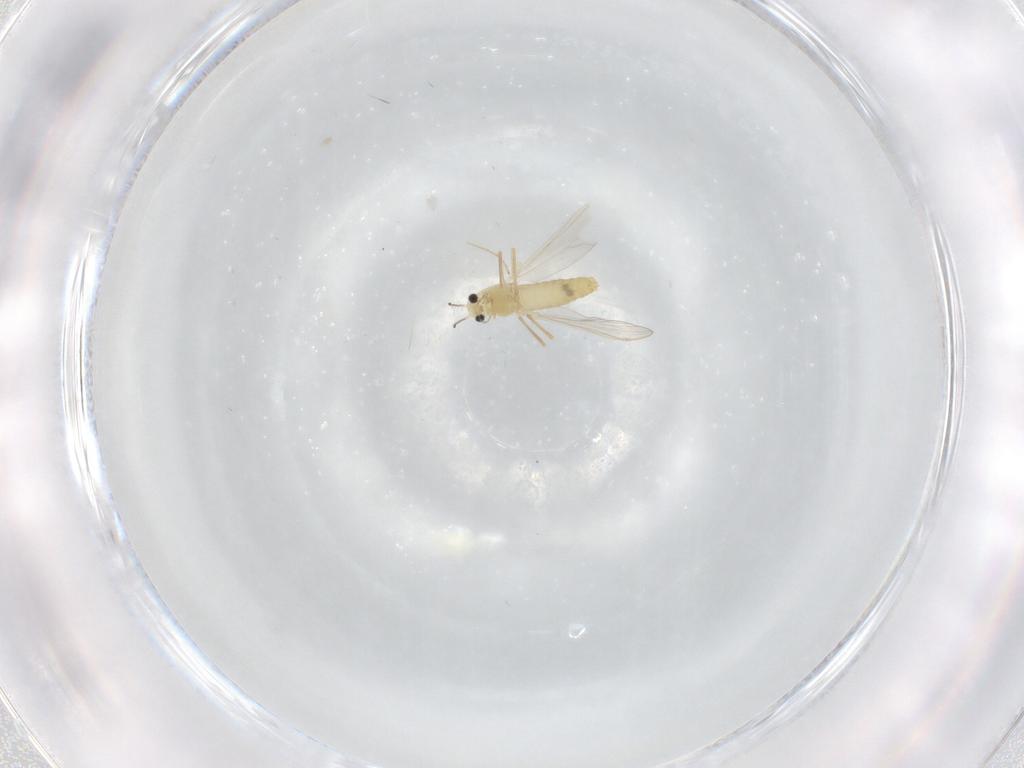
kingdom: Animalia
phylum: Arthropoda
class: Insecta
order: Diptera
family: Chironomidae
